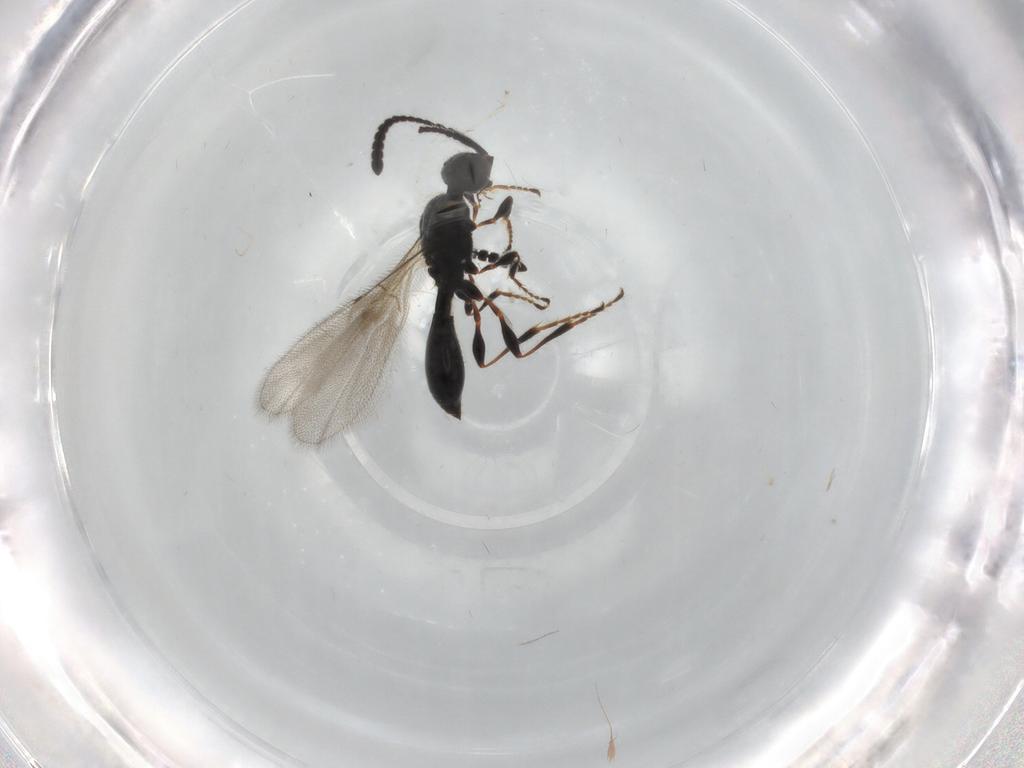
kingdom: Animalia
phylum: Arthropoda
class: Insecta
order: Hymenoptera
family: Diapriidae
